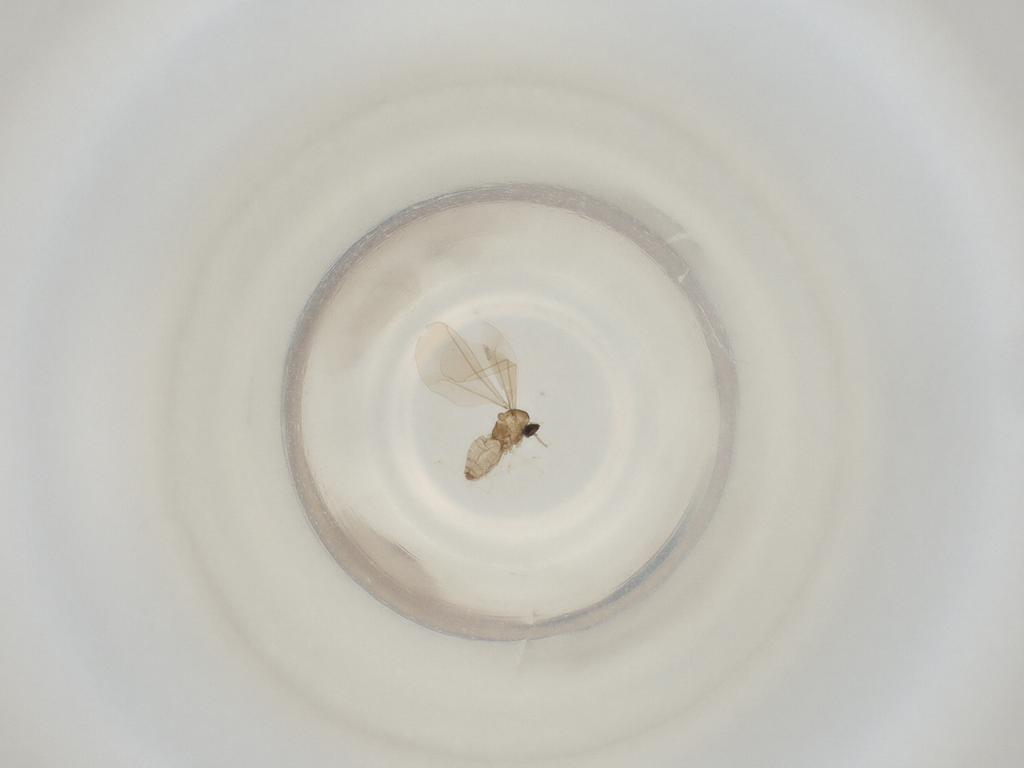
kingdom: Animalia
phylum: Arthropoda
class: Insecta
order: Diptera
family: Cecidomyiidae
